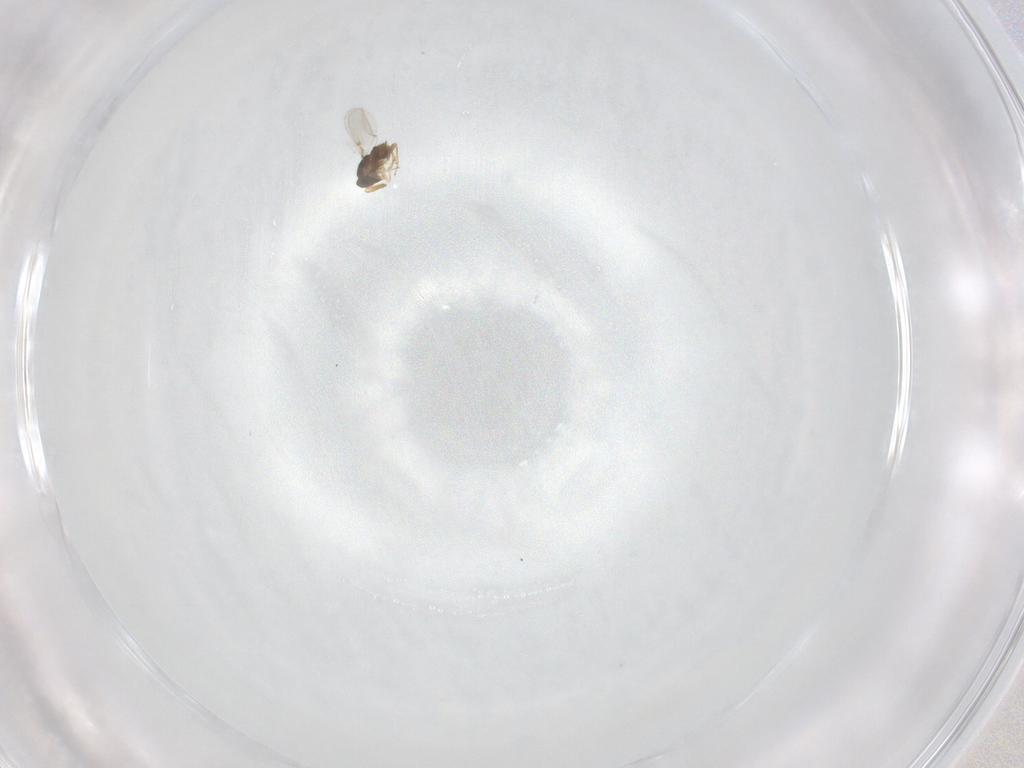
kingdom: Animalia
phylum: Arthropoda
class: Insecta
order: Hymenoptera
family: Encyrtidae
